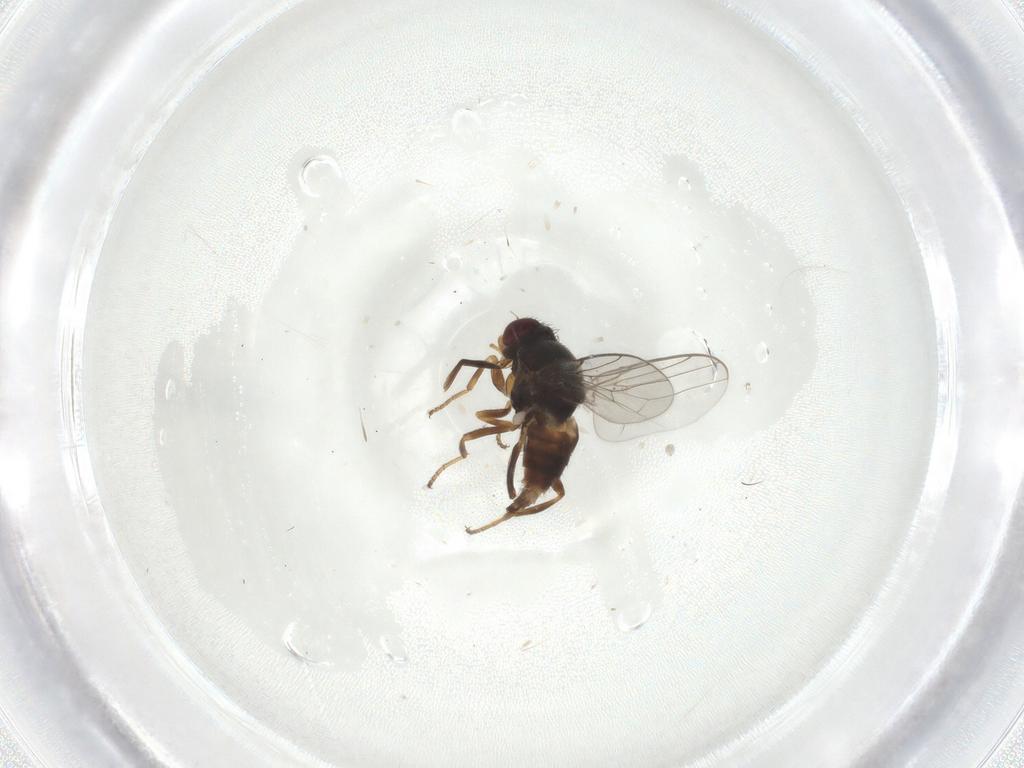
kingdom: Animalia
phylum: Arthropoda
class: Insecta
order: Diptera
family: Chloropidae
